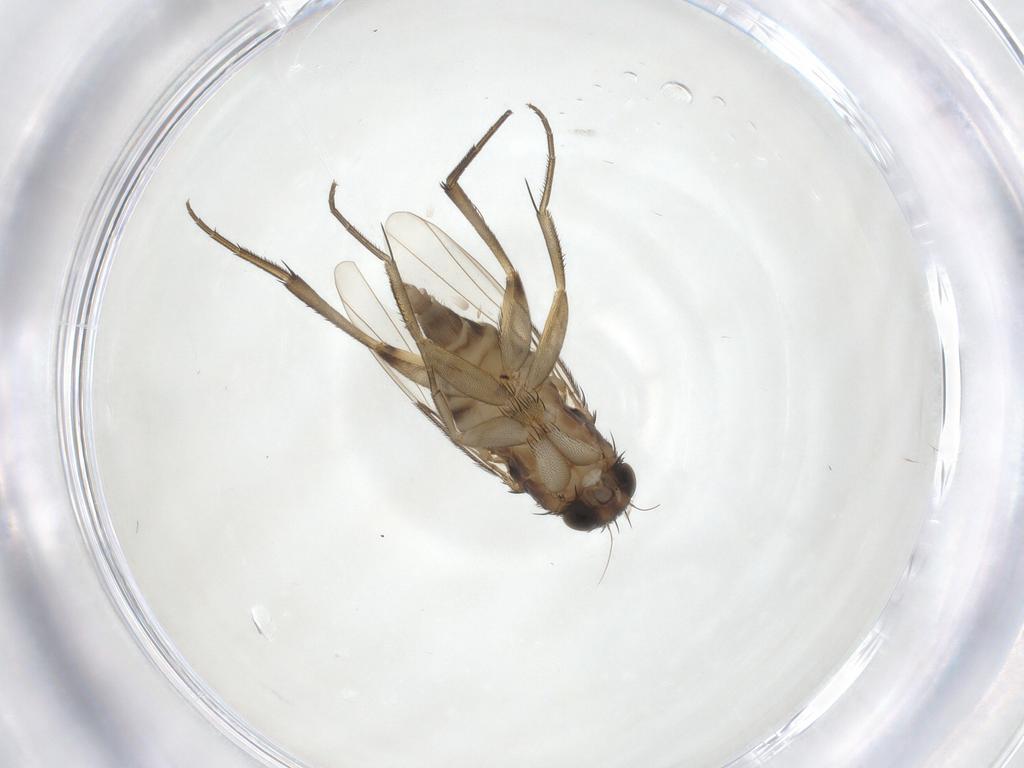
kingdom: Animalia
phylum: Arthropoda
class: Insecta
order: Diptera
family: Phoridae
